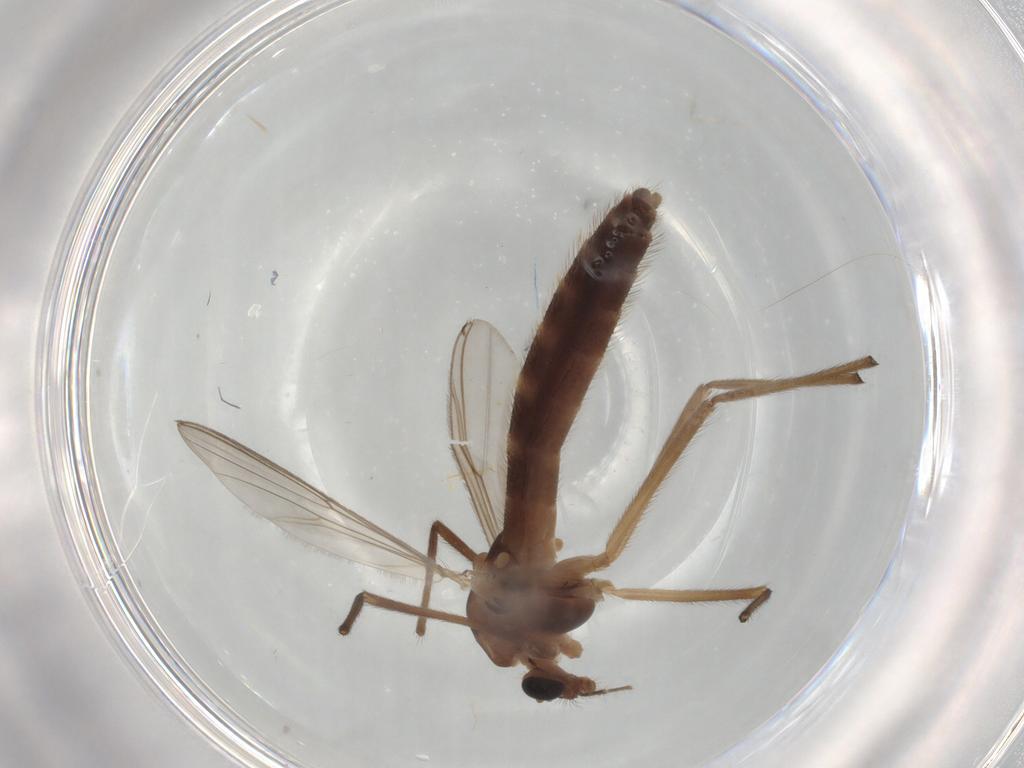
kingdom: Animalia
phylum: Arthropoda
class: Insecta
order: Diptera
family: Chironomidae
